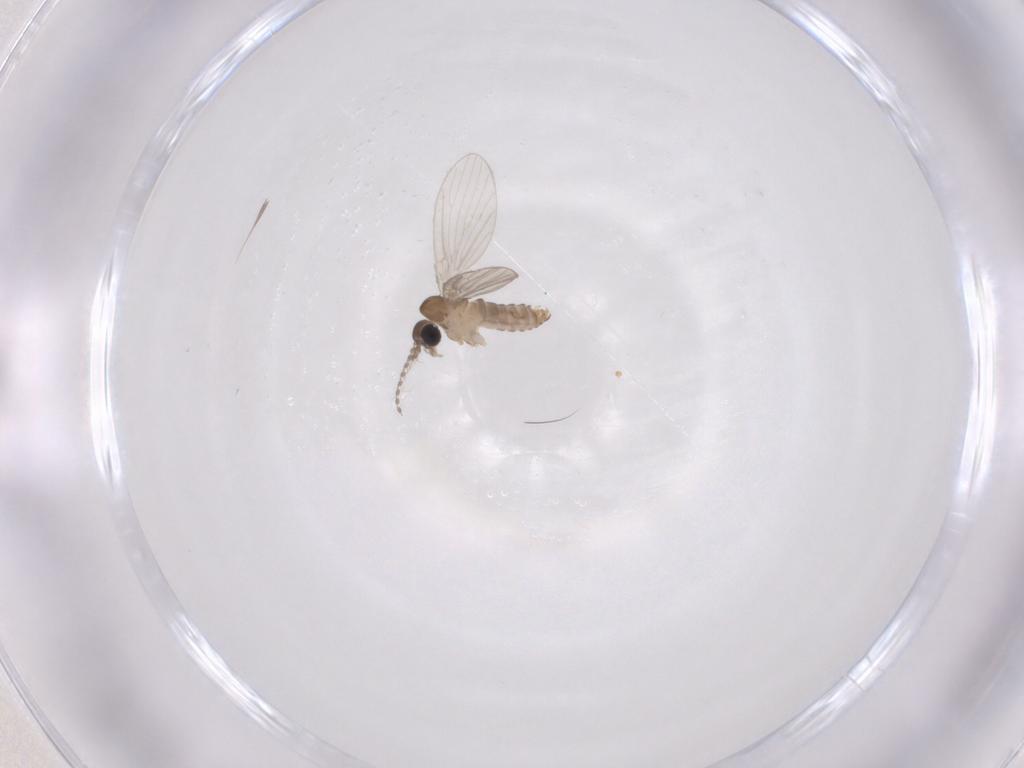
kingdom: Animalia
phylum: Arthropoda
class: Insecta
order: Diptera
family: Psychodidae
